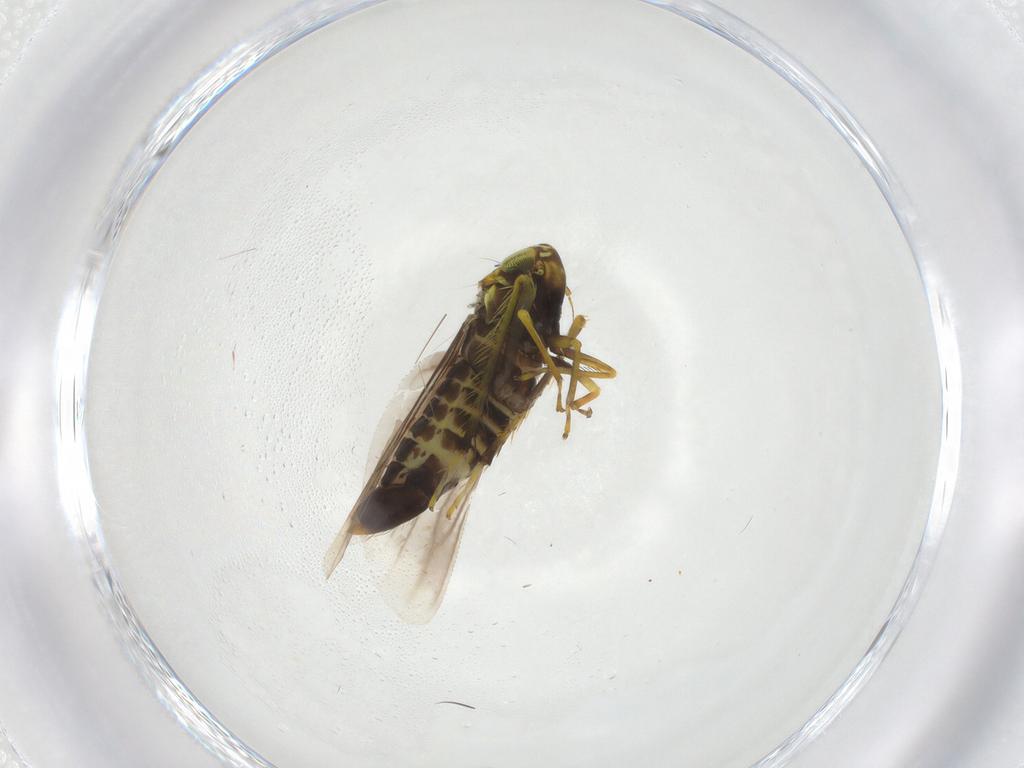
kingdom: Animalia
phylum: Arthropoda
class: Insecta
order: Hemiptera
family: Cicadellidae
